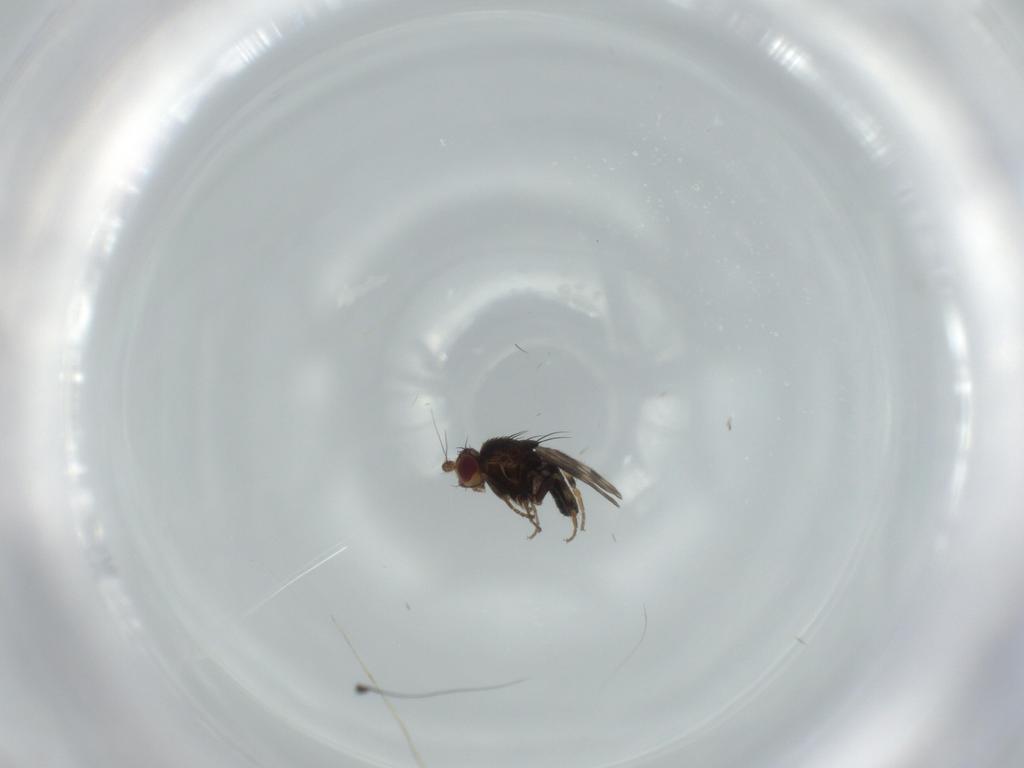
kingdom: Animalia
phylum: Arthropoda
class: Insecta
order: Diptera
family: Sphaeroceridae
